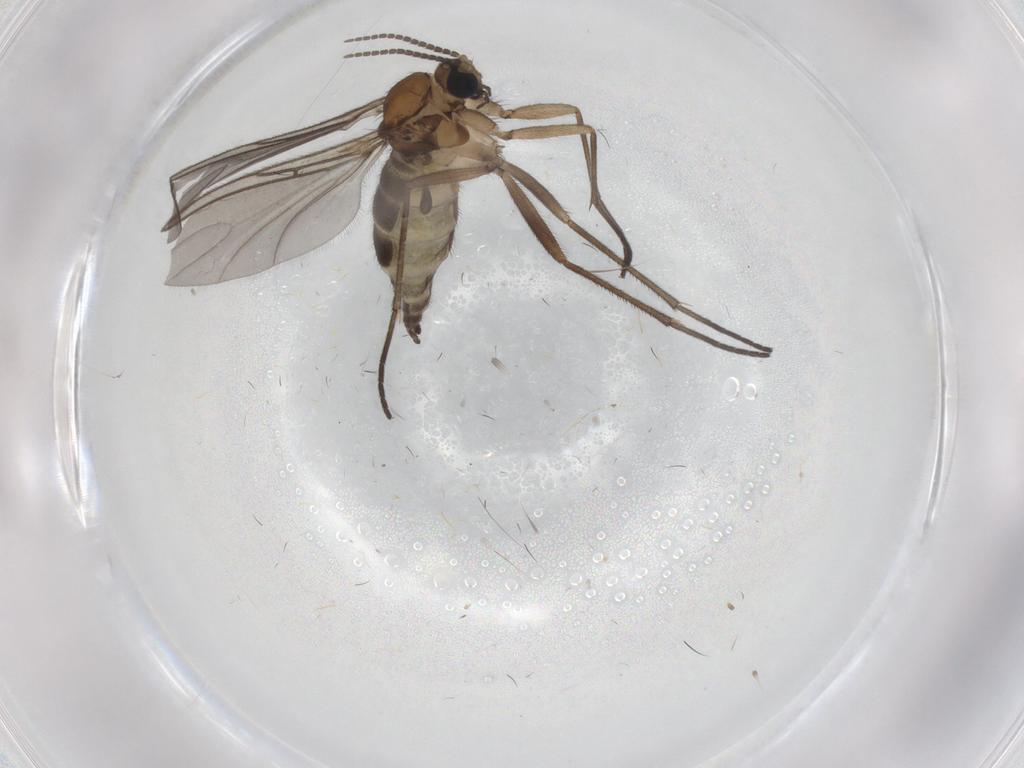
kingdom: Animalia
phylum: Arthropoda
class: Insecta
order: Diptera
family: Sciaridae
